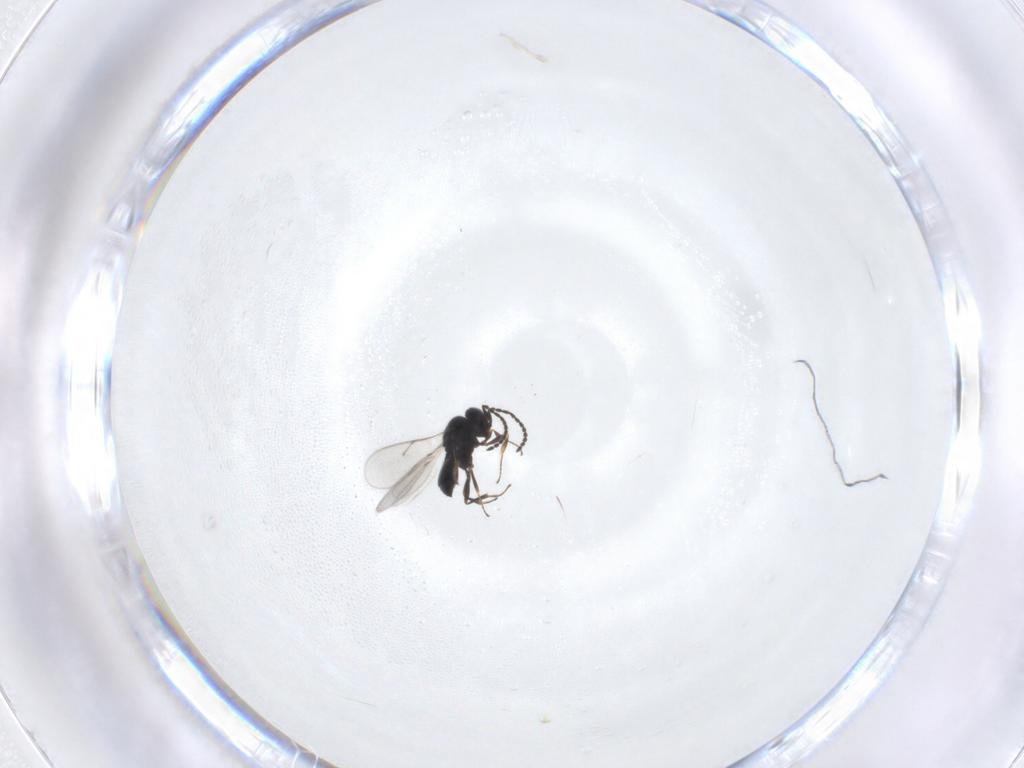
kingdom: Animalia
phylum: Arthropoda
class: Insecta
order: Hymenoptera
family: Scelionidae
